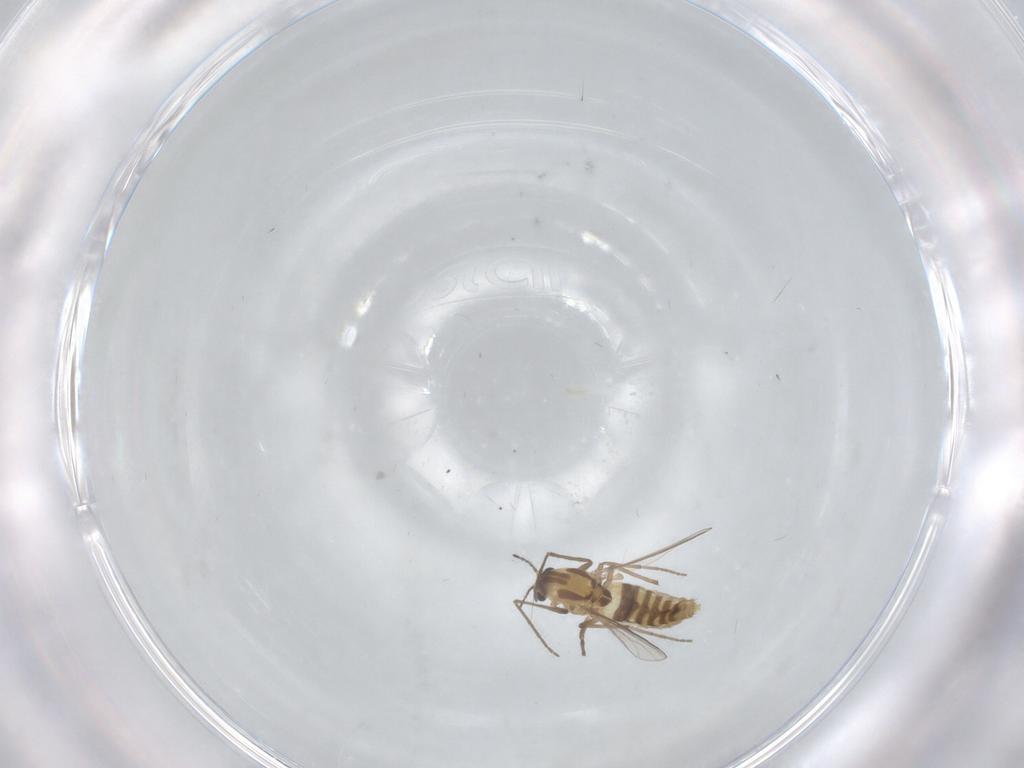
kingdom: Animalia
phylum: Arthropoda
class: Insecta
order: Diptera
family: Chironomidae
